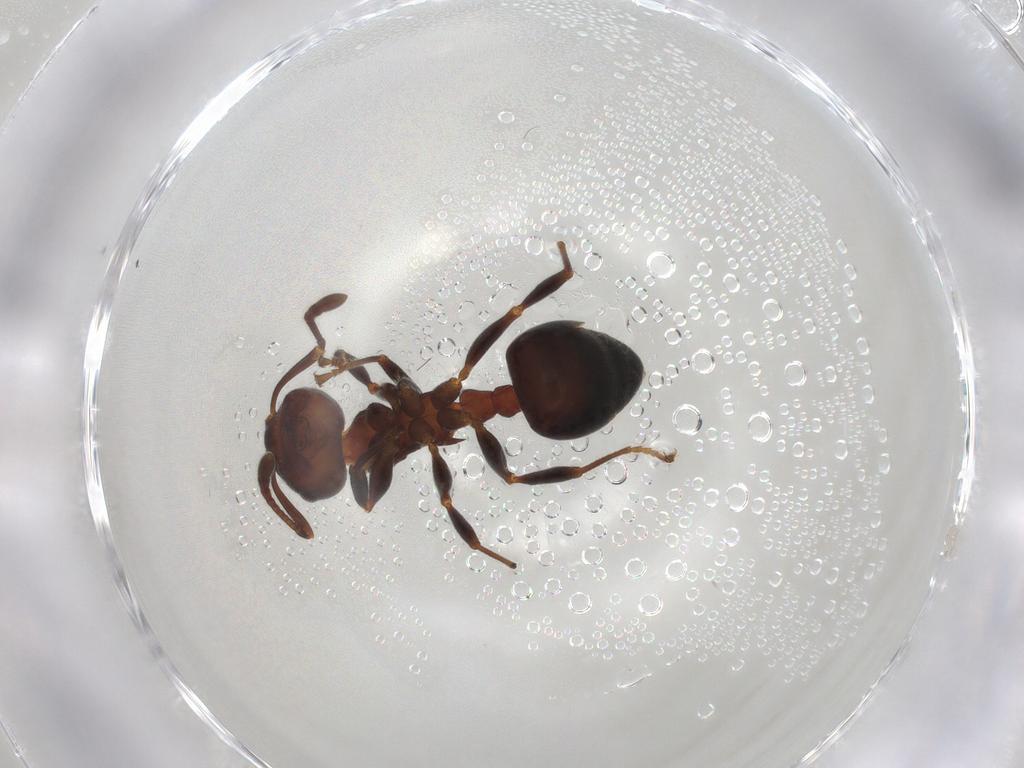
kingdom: Animalia
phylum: Arthropoda
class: Insecta
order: Hymenoptera
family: Formicidae
